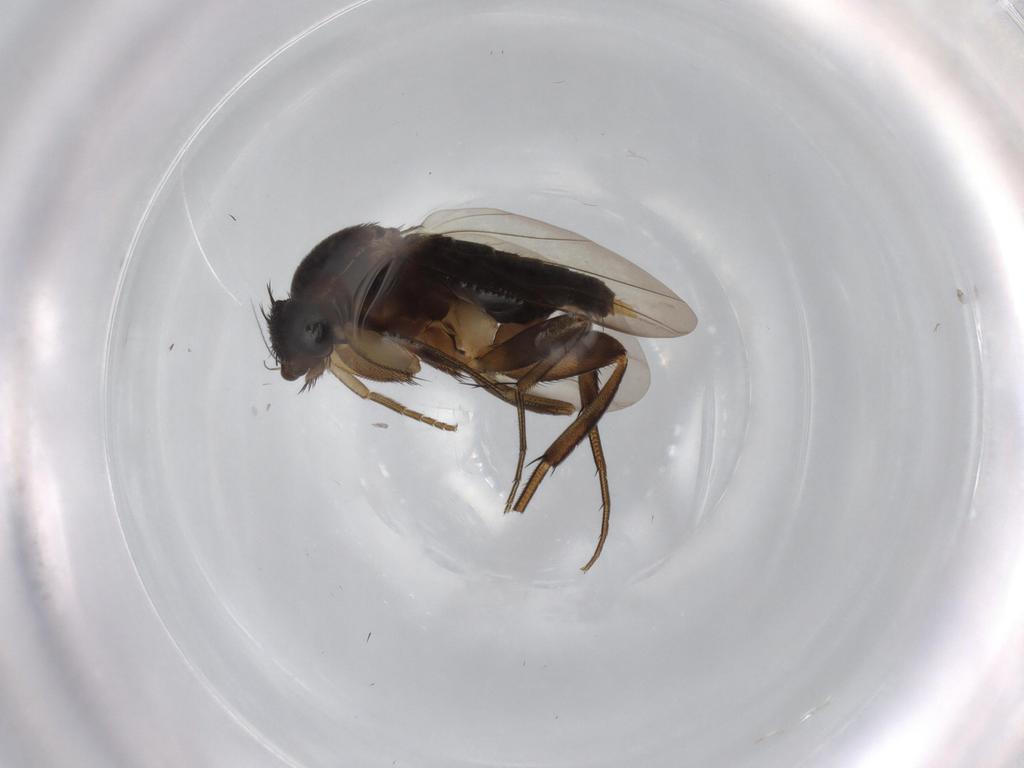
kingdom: Animalia
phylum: Arthropoda
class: Insecta
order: Diptera
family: Phoridae
